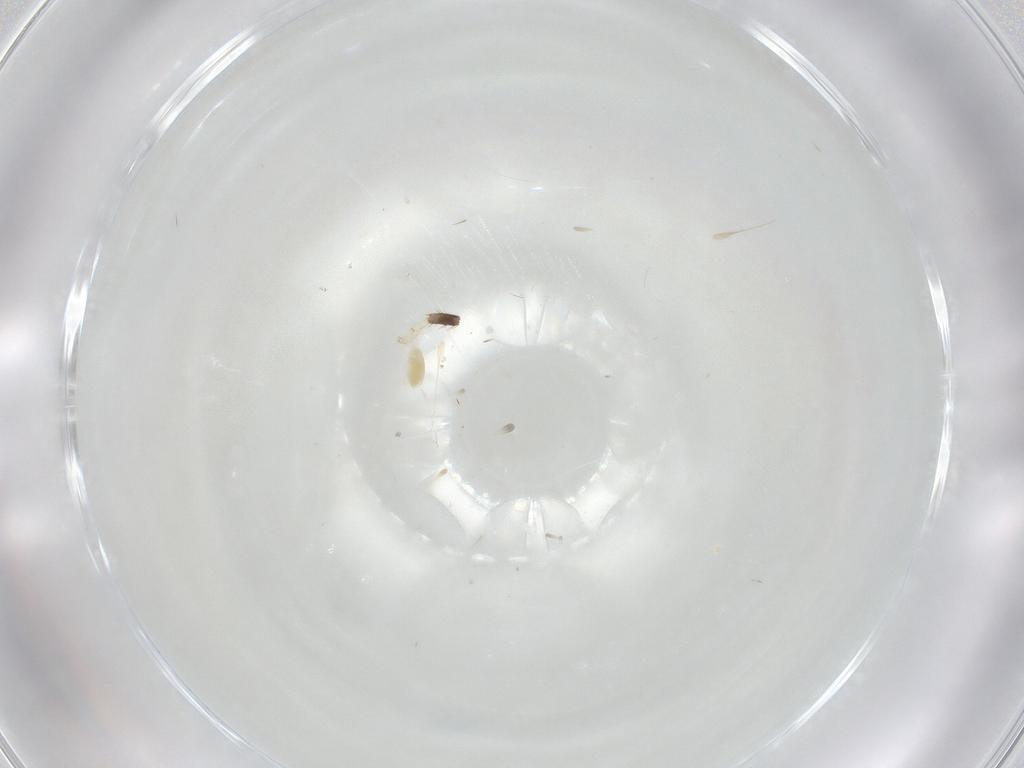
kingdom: Animalia
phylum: Arthropoda
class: Arachnida
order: Trombidiformes
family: Eupodidae
